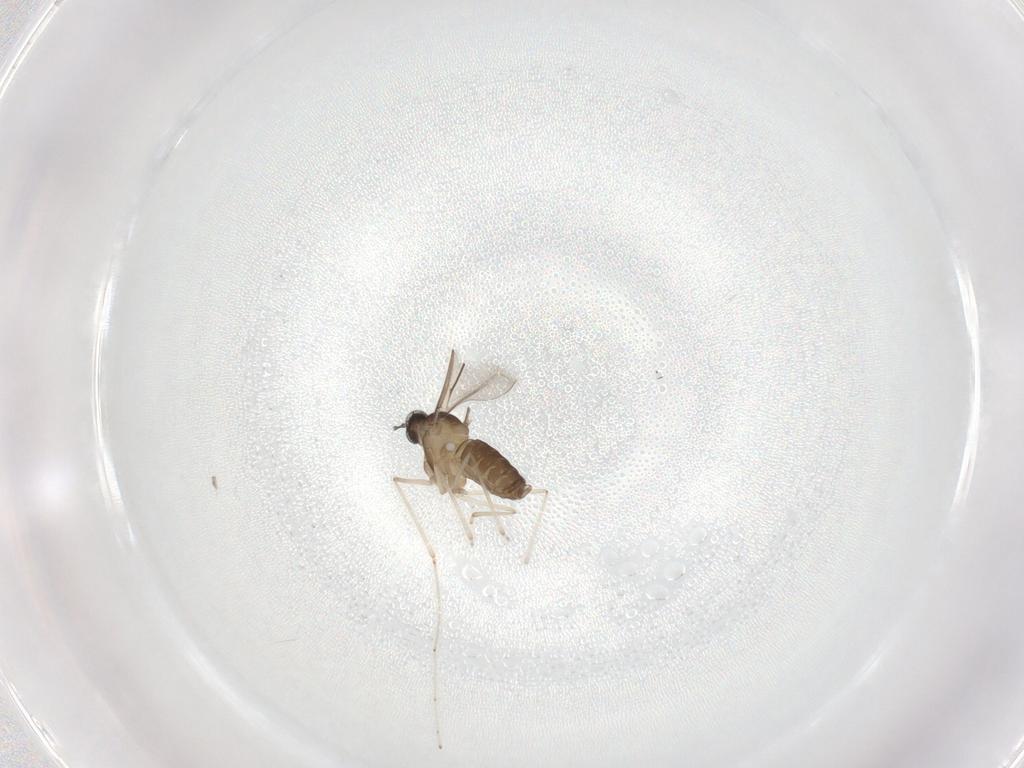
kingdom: Animalia
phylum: Arthropoda
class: Insecta
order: Diptera
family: Cecidomyiidae
